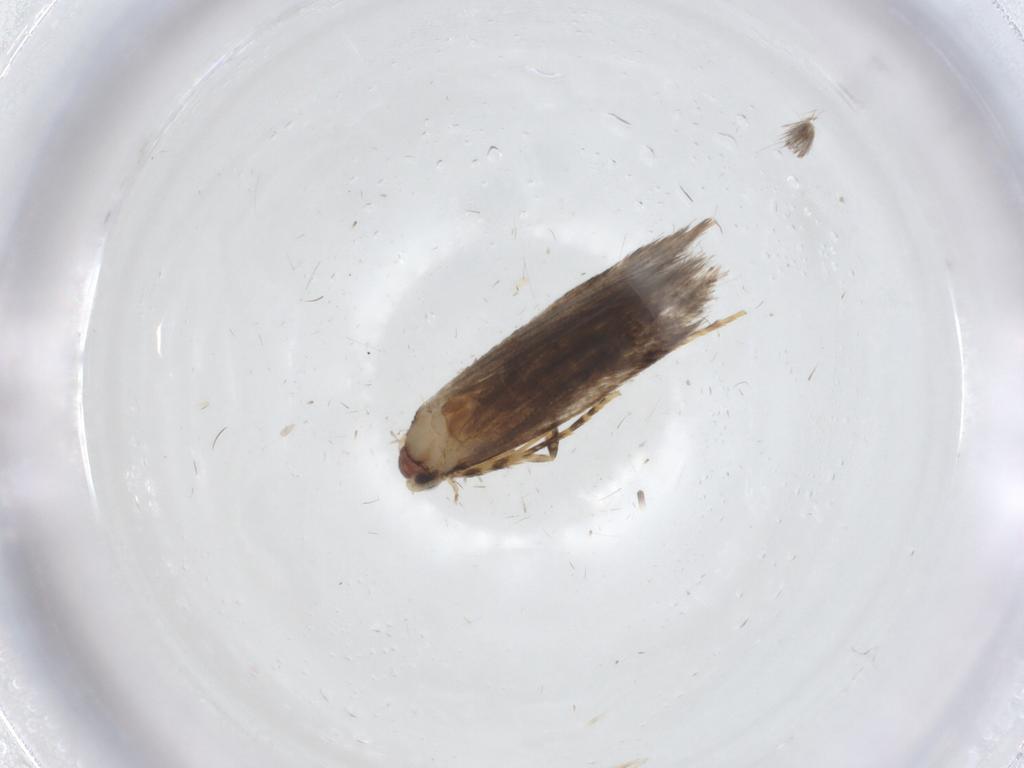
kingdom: Animalia
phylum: Arthropoda
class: Insecta
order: Lepidoptera
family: Tineidae
